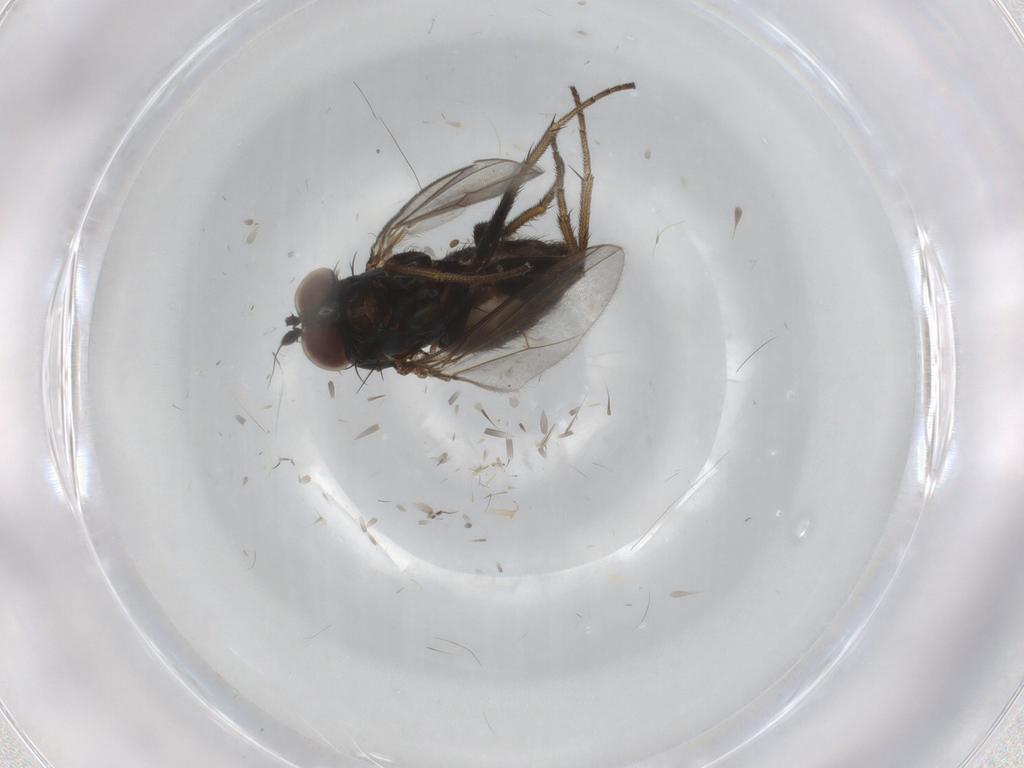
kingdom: Animalia
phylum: Arthropoda
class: Insecta
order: Diptera
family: Dolichopodidae
